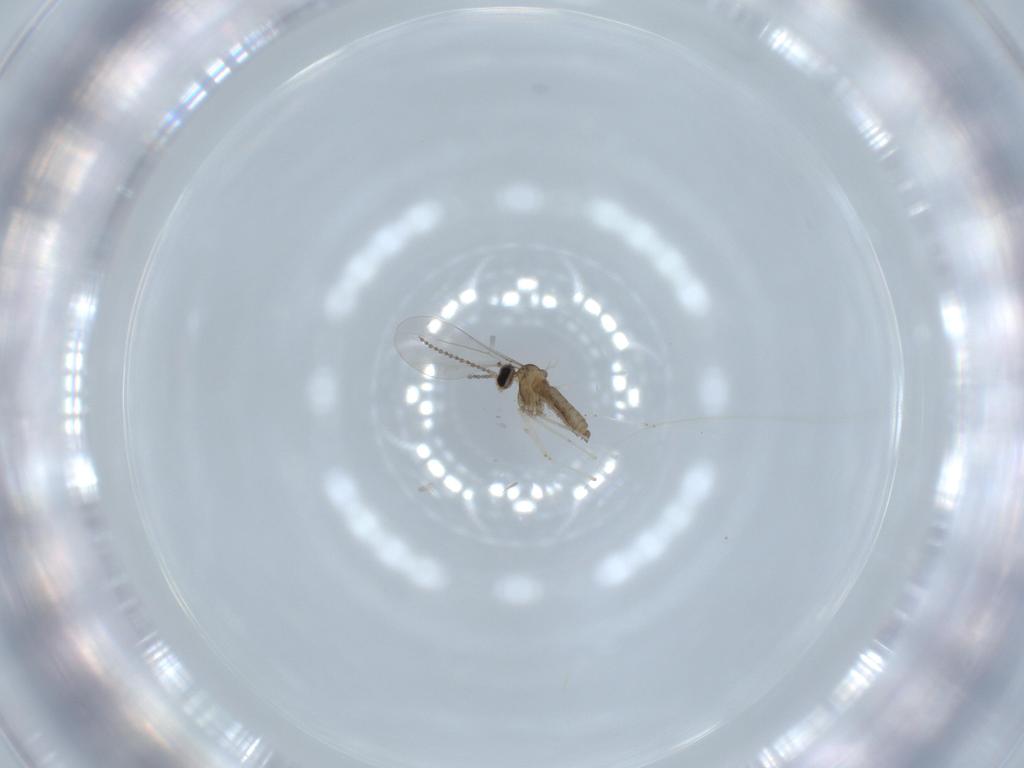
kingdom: Animalia
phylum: Arthropoda
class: Insecta
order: Diptera
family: Cecidomyiidae
